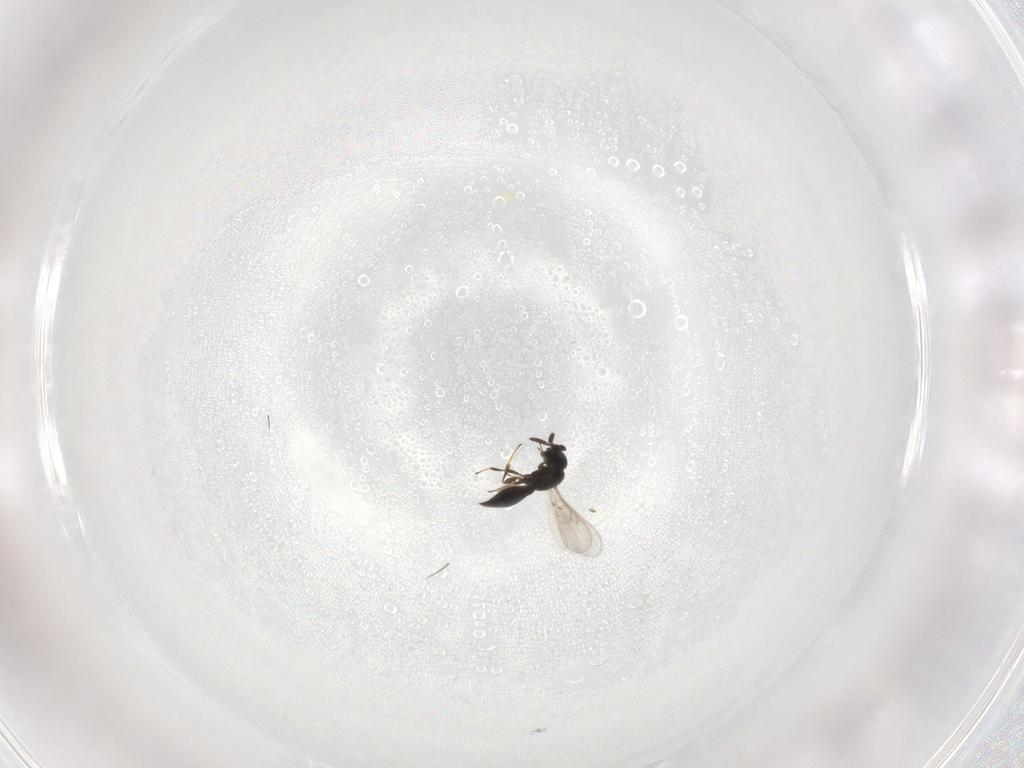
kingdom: Animalia
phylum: Arthropoda
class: Insecta
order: Hymenoptera
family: Scelionidae
